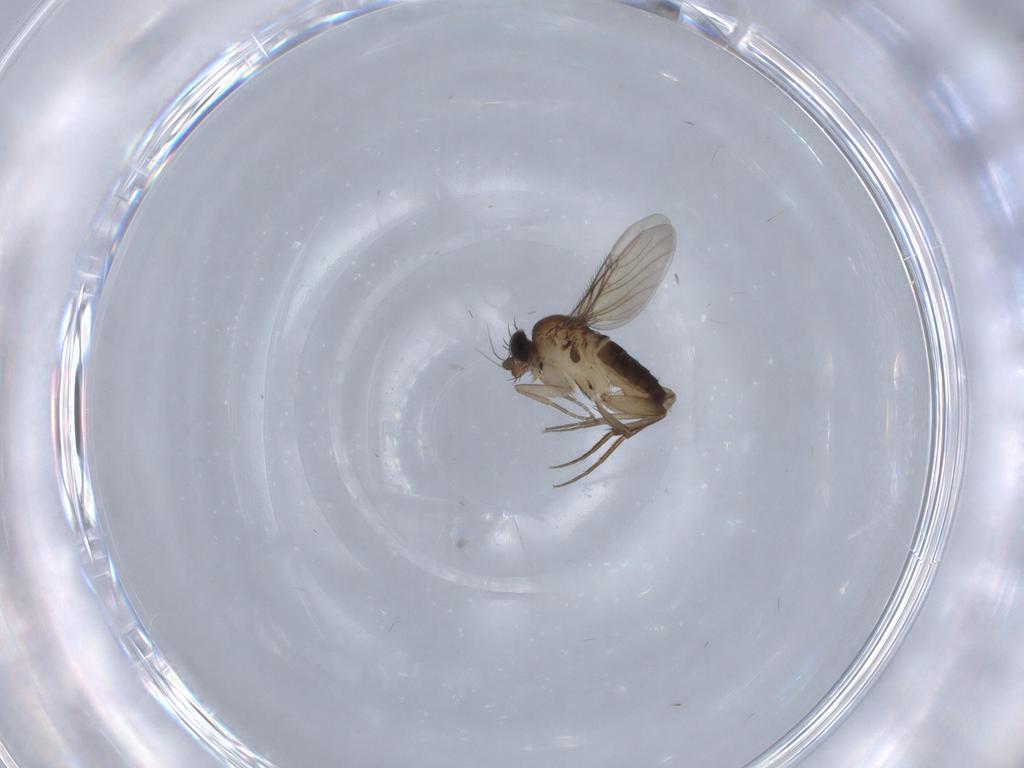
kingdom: Animalia
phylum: Arthropoda
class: Insecta
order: Diptera
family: Phoridae
